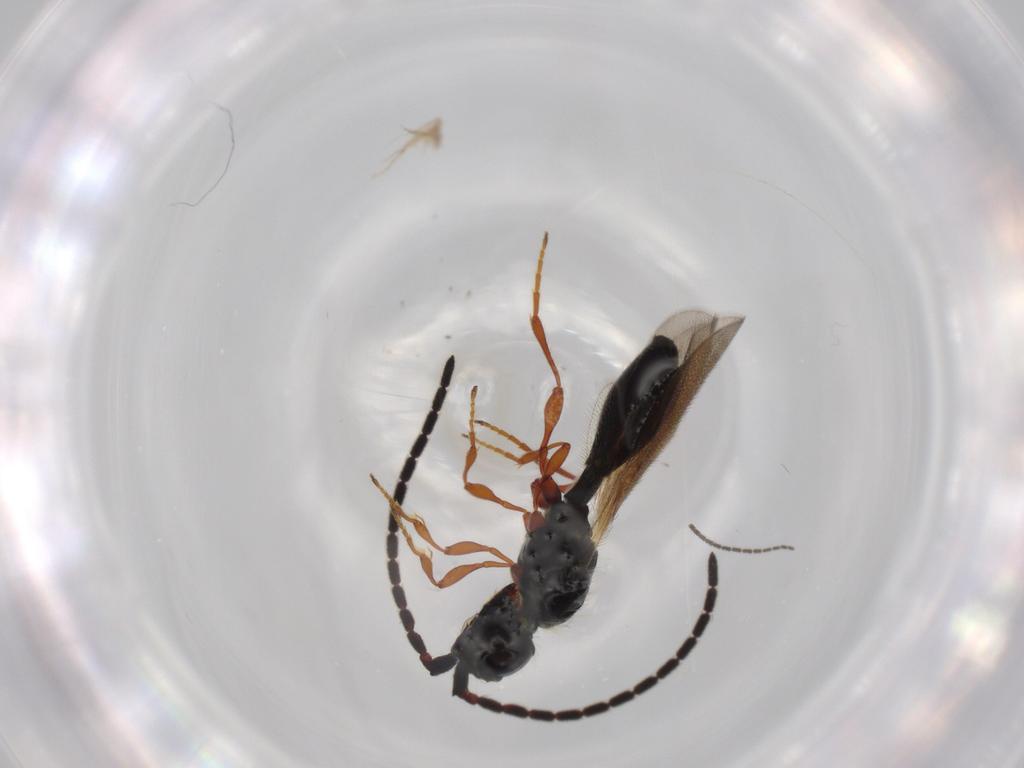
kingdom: Animalia
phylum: Arthropoda
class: Insecta
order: Hymenoptera
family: Diapriidae
